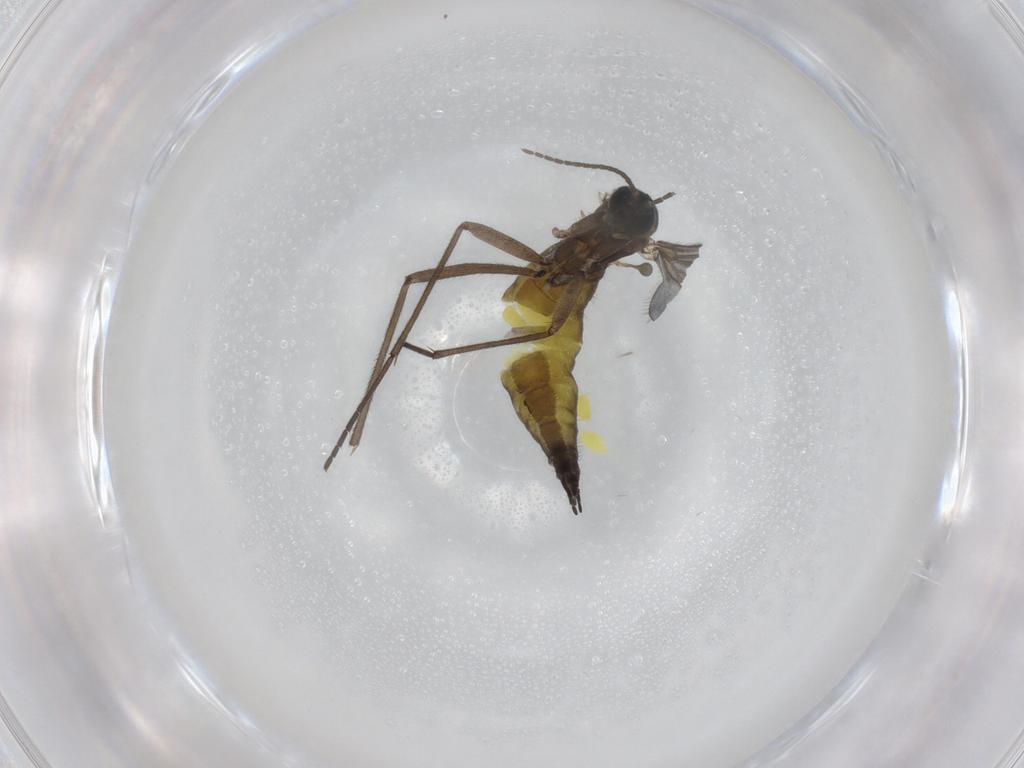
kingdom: Animalia
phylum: Arthropoda
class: Insecta
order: Diptera
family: Sciaridae
